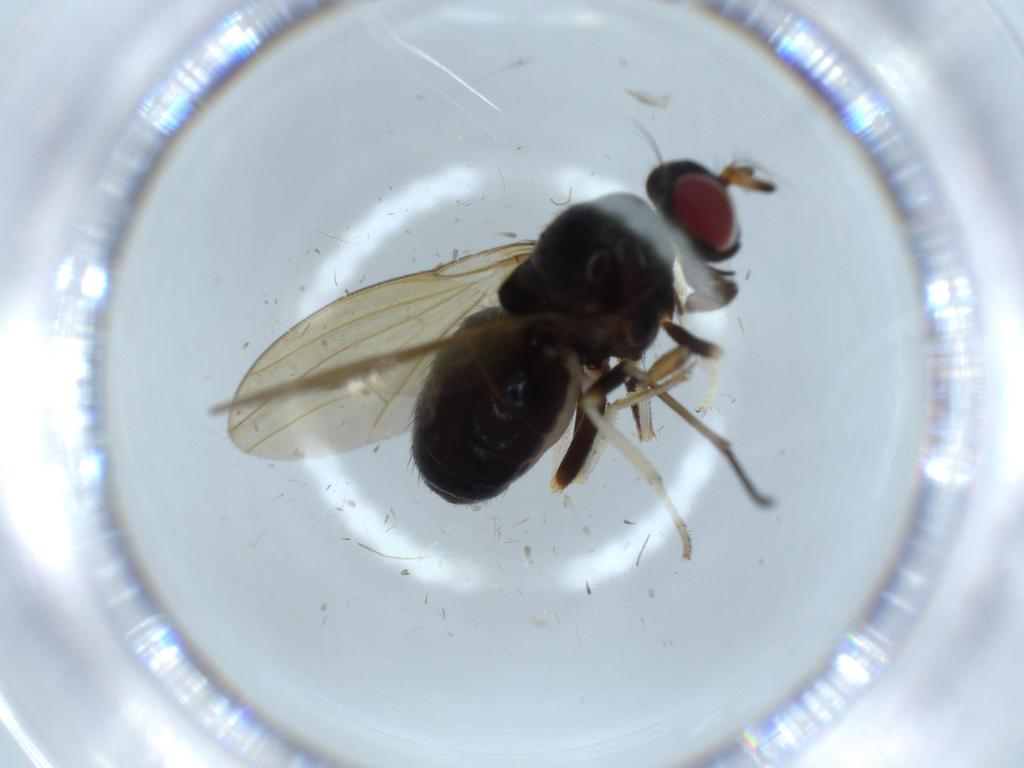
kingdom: Animalia
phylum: Arthropoda
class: Insecta
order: Diptera
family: Sciaridae
